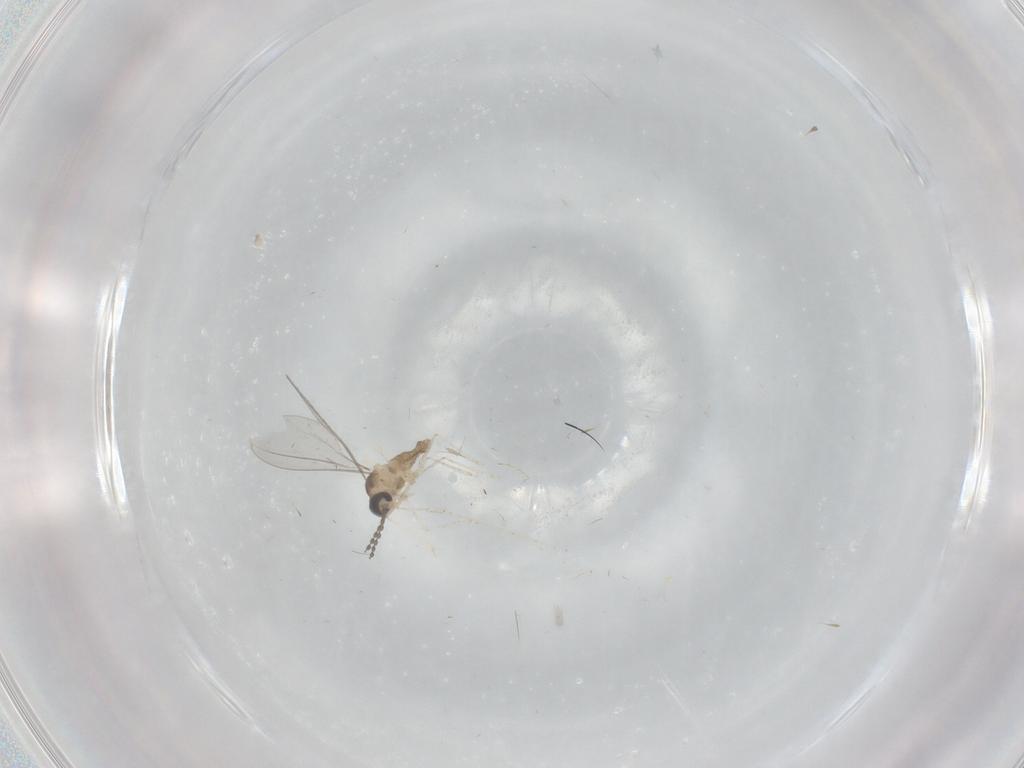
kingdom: Animalia
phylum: Arthropoda
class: Insecta
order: Diptera
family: Cecidomyiidae
